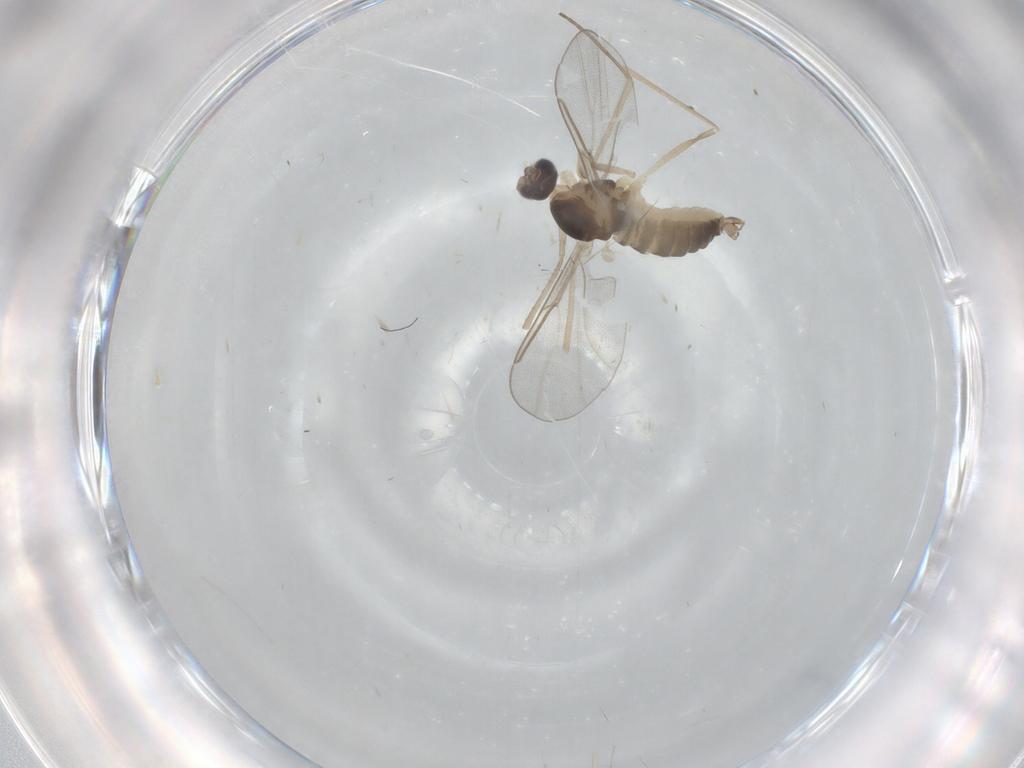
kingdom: Animalia
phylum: Arthropoda
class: Insecta
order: Diptera
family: Cecidomyiidae
